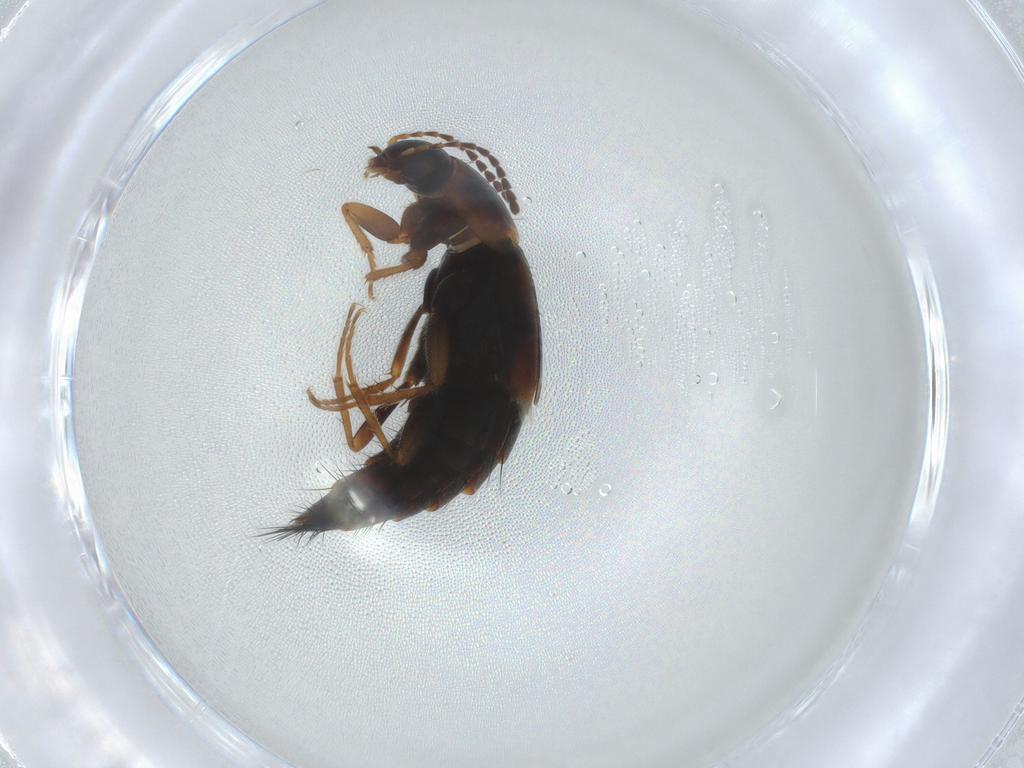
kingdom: Animalia
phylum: Arthropoda
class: Insecta
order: Coleoptera
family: Staphylinidae
